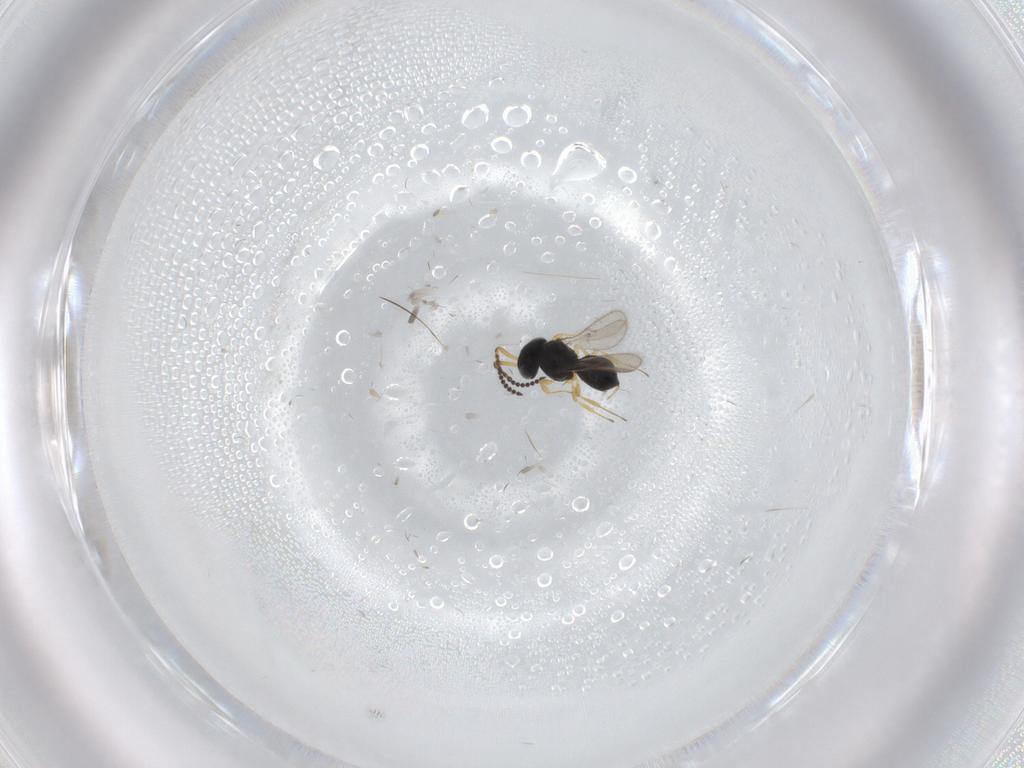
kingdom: Animalia
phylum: Arthropoda
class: Insecta
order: Hymenoptera
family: Scelionidae
